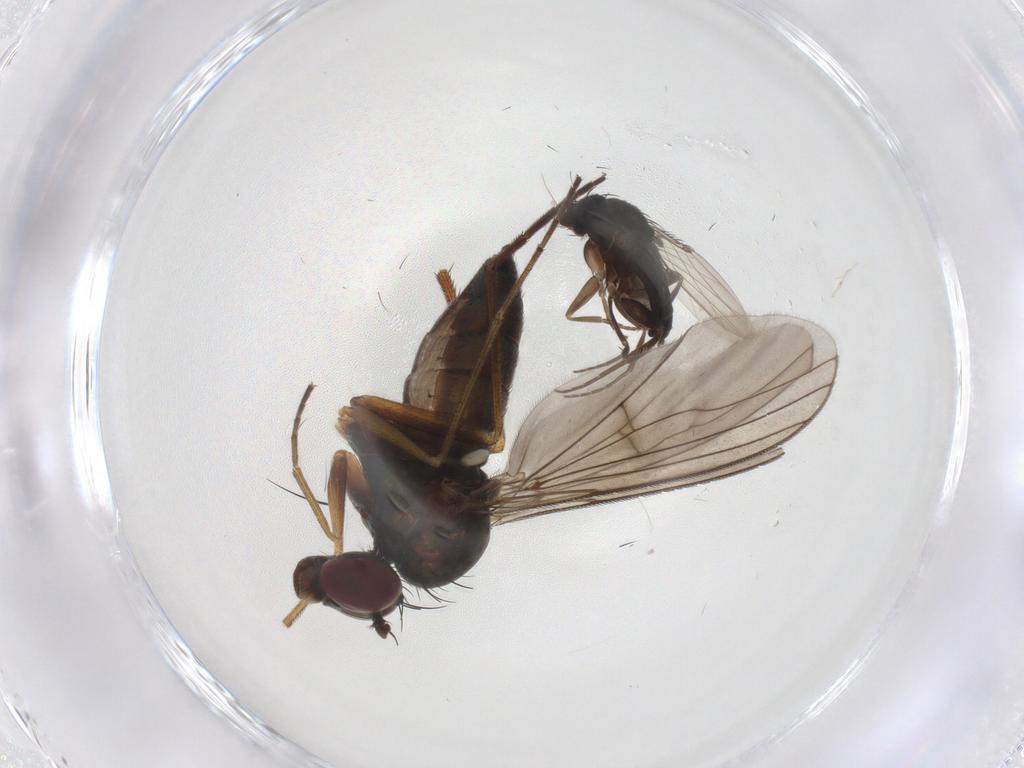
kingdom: Animalia
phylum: Arthropoda
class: Insecta
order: Diptera
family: Dolichopodidae
